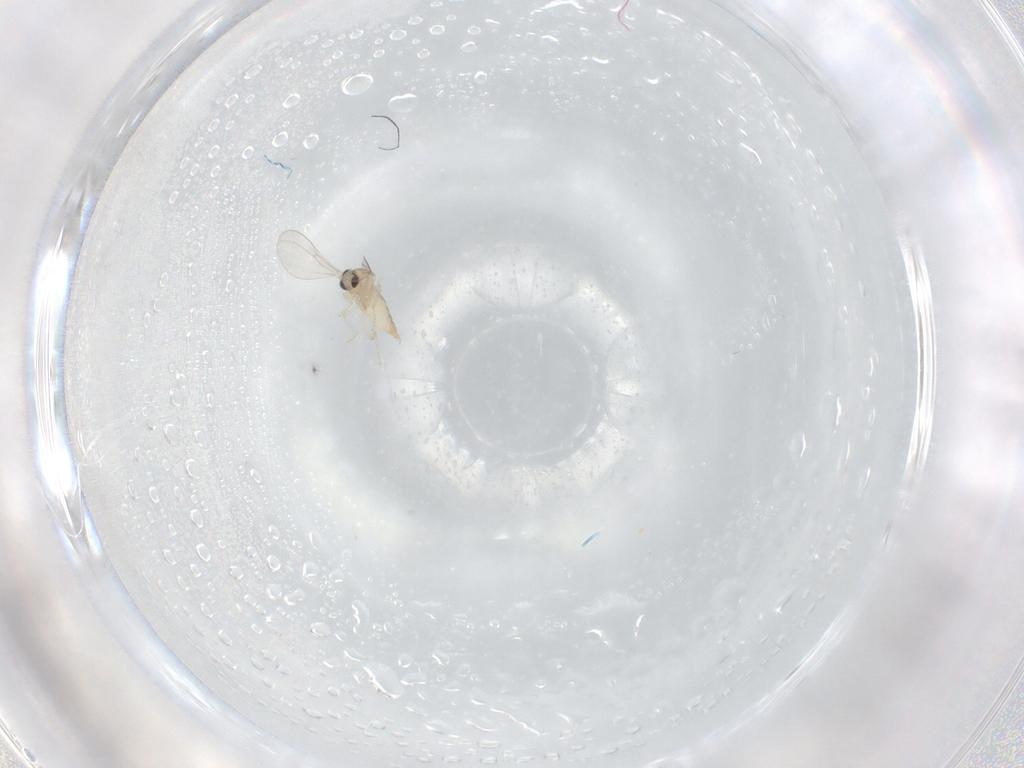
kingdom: Animalia
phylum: Arthropoda
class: Insecta
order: Diptera
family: Cecidomyiidae
